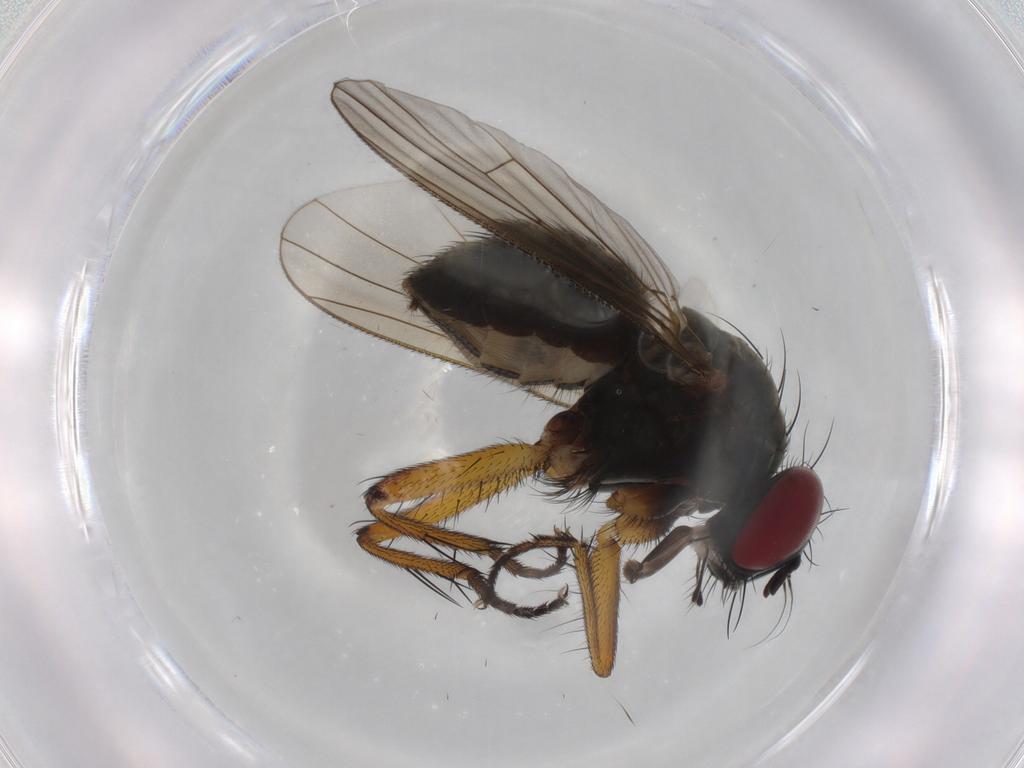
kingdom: Animalia
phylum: Arthropoda
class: Insecta
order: Diptera
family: Muscidae
